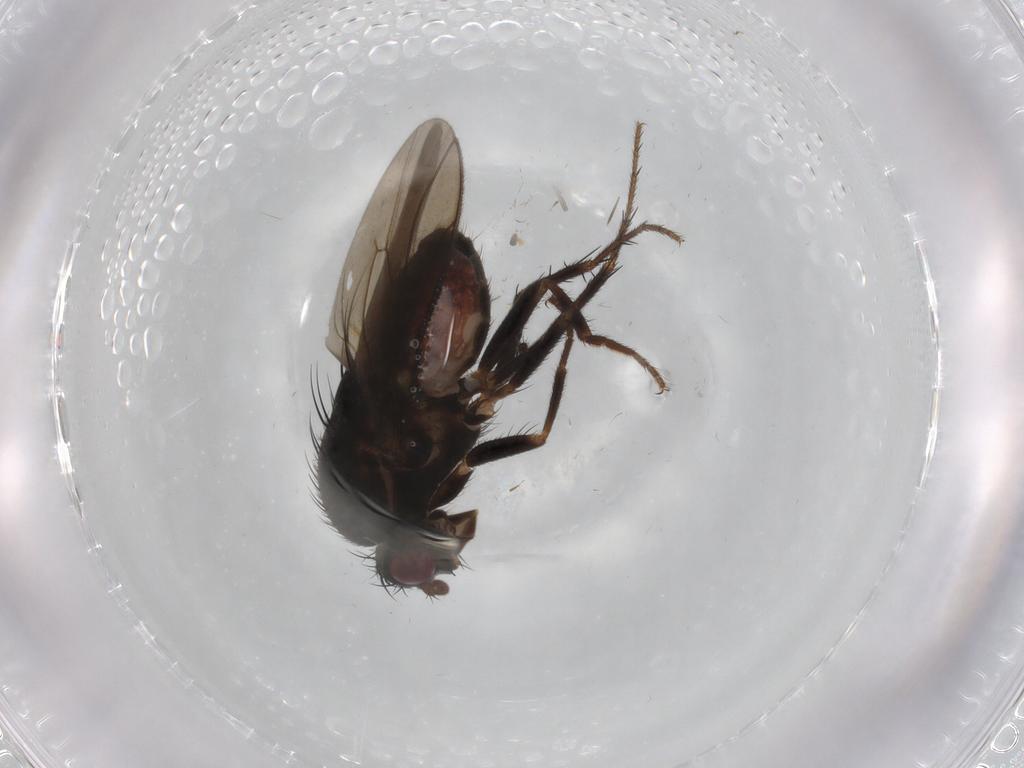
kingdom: Animalia
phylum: Arthropoda
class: Insecta
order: Diptera
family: Sphaeroceridae
